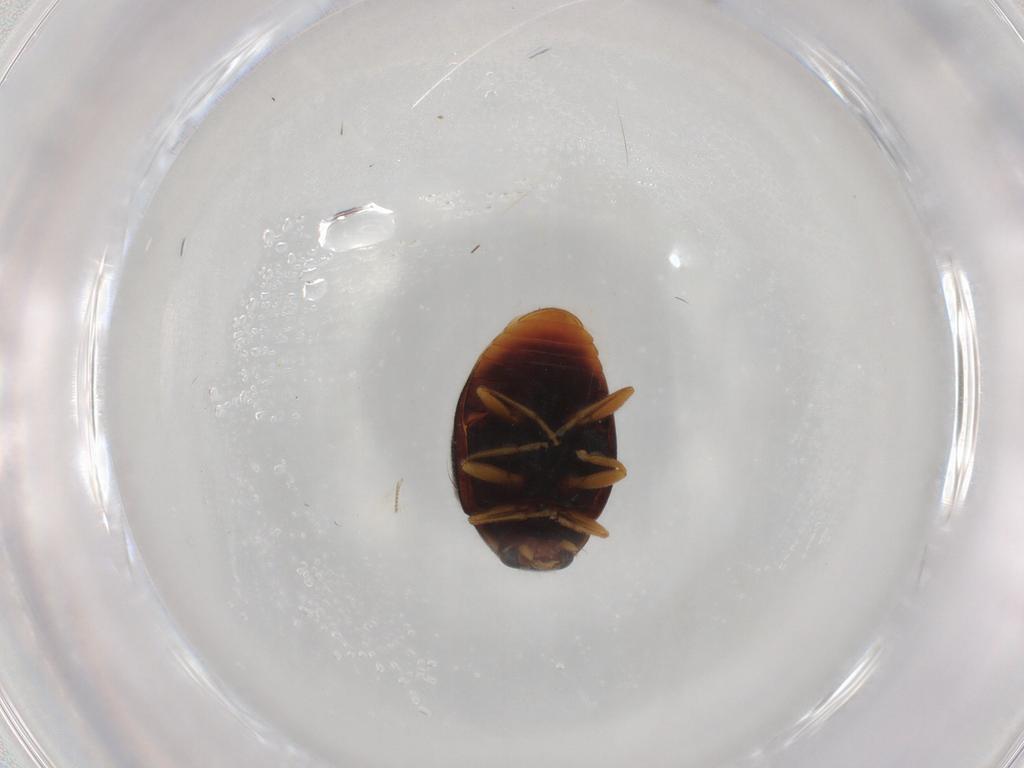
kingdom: Animalia
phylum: Arthropoda
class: Insecta
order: Coleoptera
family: Coccinellidae
